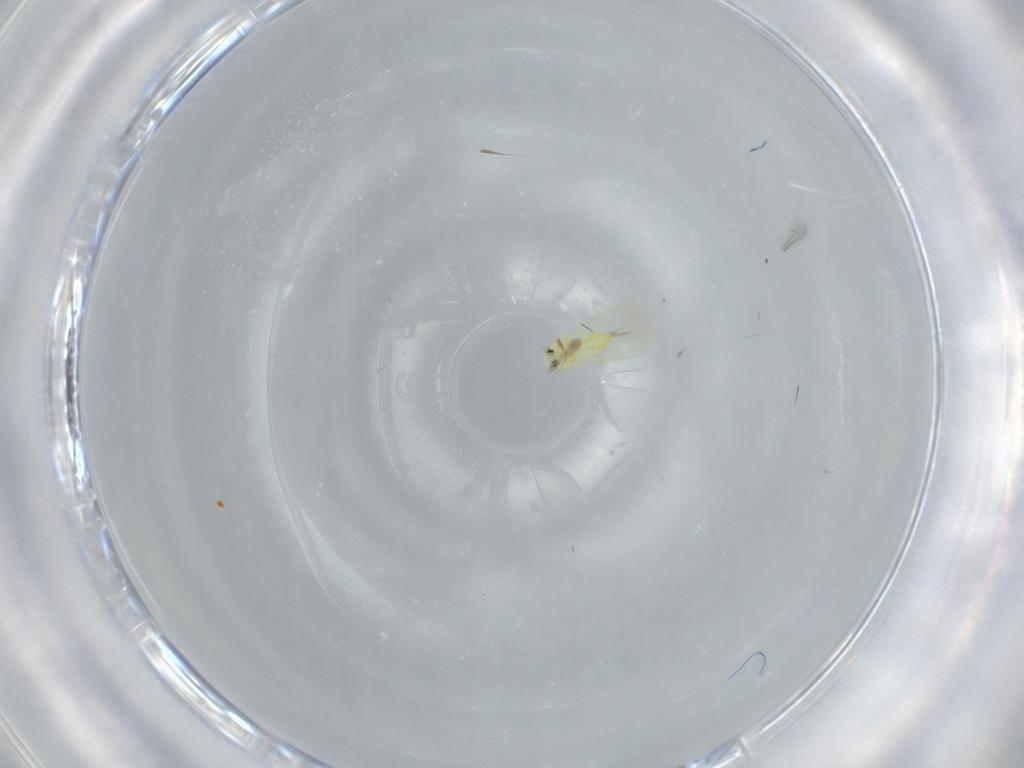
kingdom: Animalia
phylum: Arthropoda
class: Insecta
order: Hemiptera
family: Aleyrodidae
